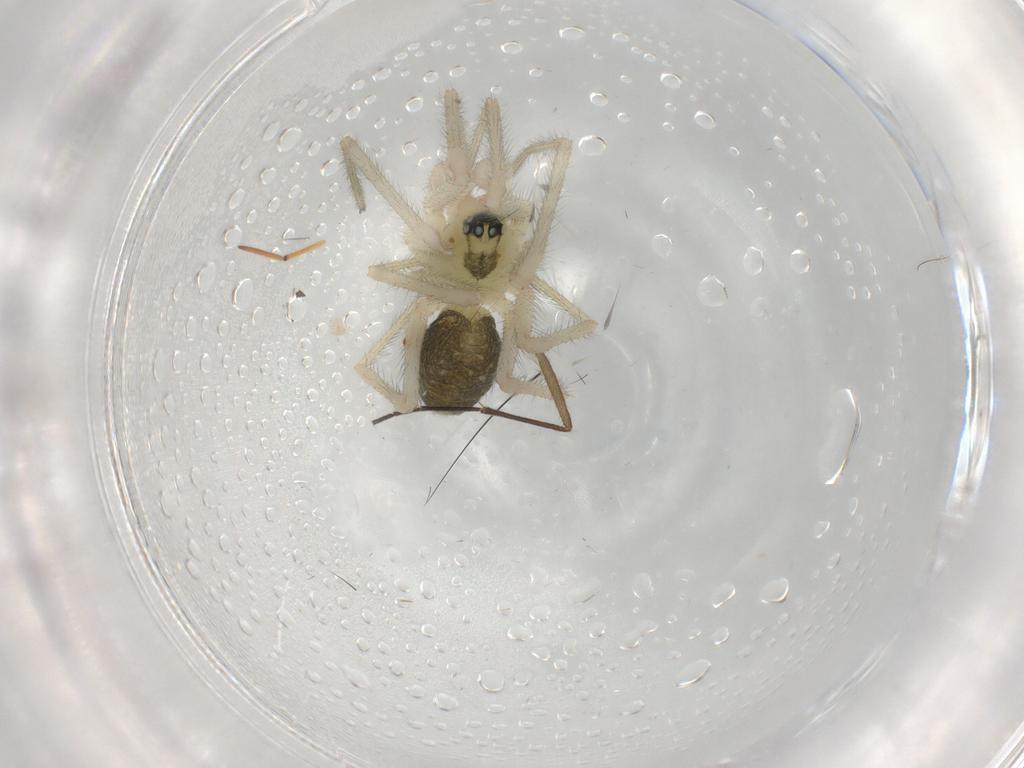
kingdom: Animalia
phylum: Arthropoda
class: Arachnida
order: Araneae
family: Linyphiidae
